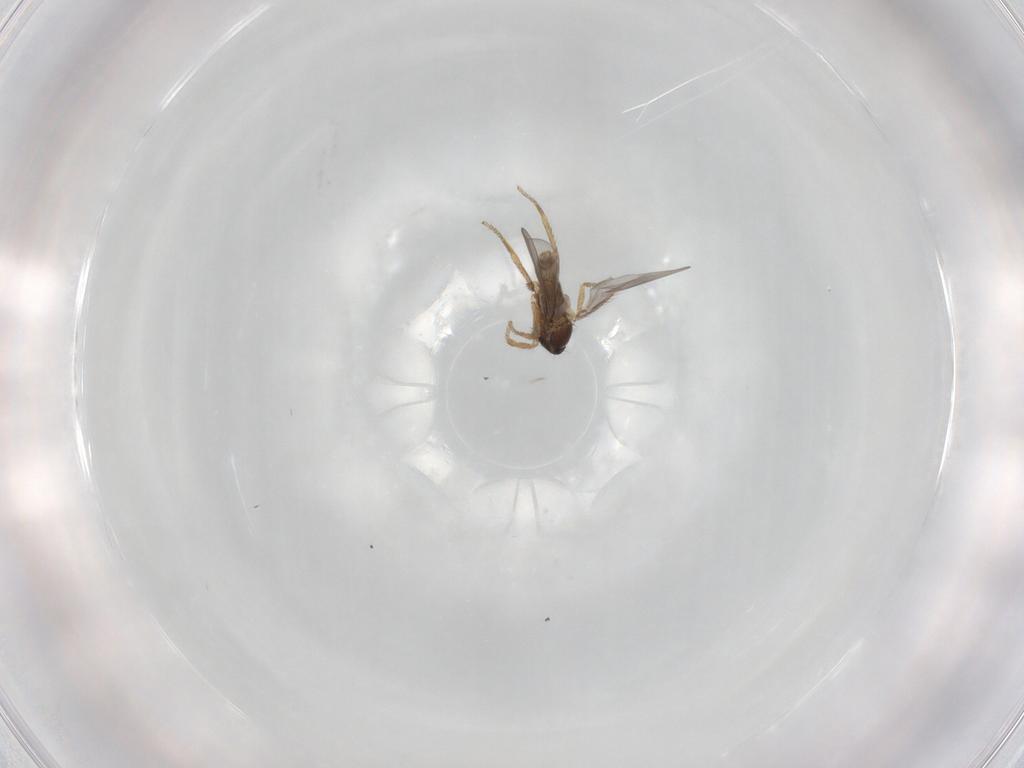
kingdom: Animalia
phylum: Arthropoda
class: Insecta
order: Diptera
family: Phoridae
